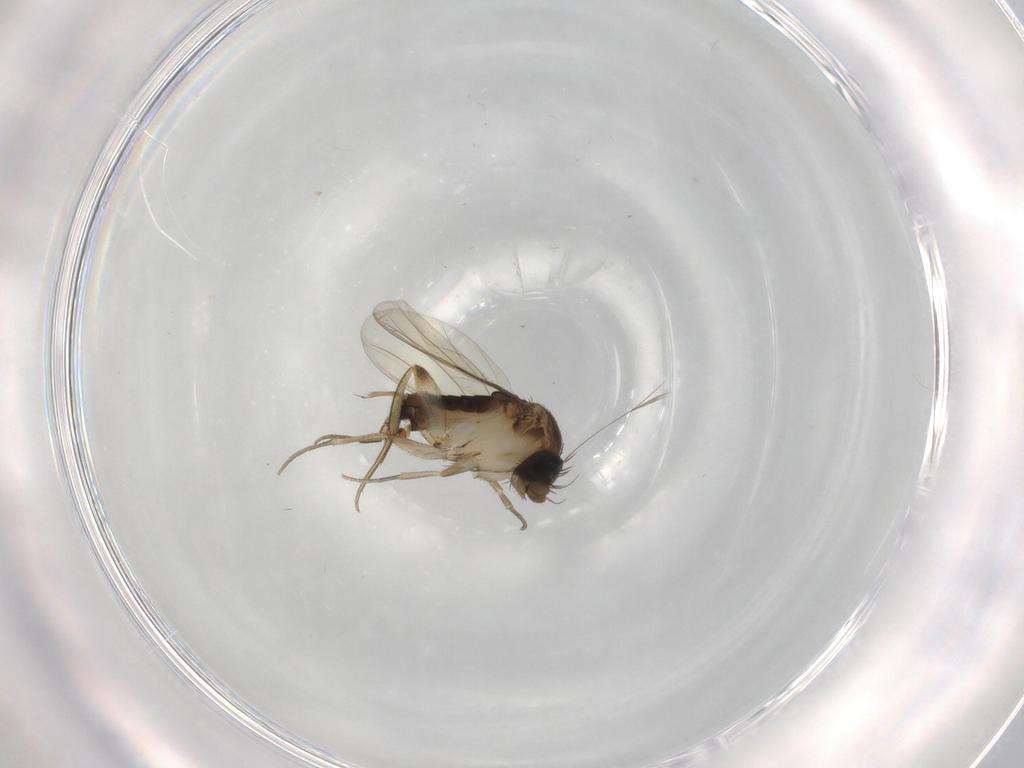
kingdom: Animalia
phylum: Arthropoda
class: Insecta
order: Diptera
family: Phoridae
